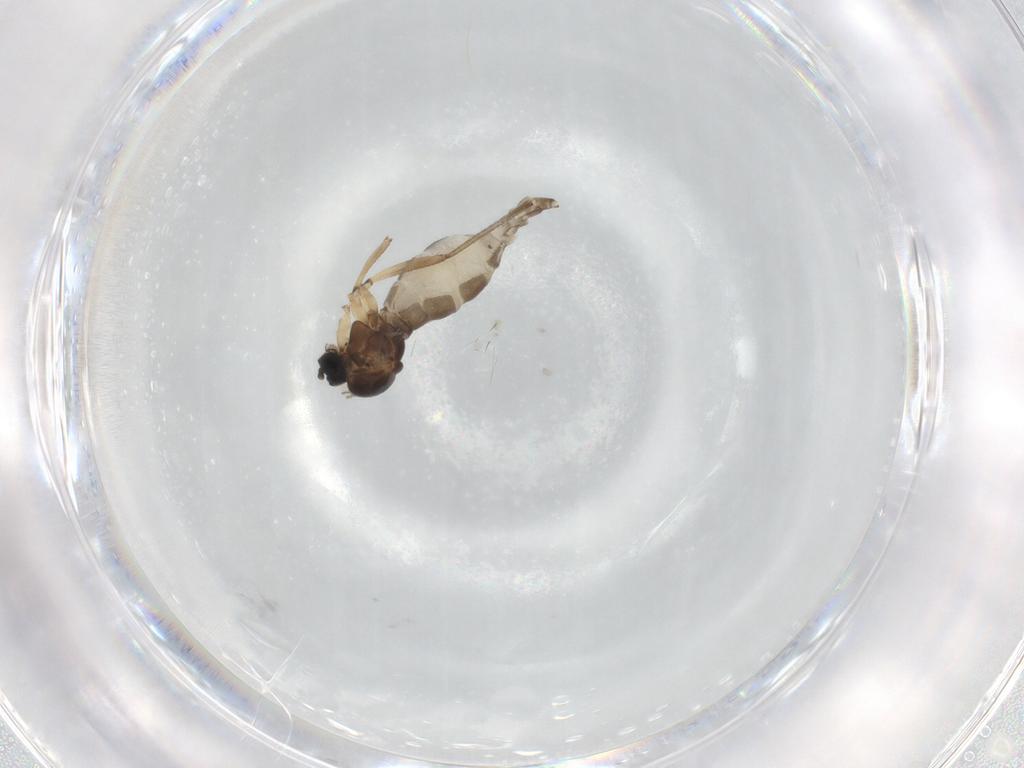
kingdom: Animalia
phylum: Arthropoda
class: Insecta
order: Diptera
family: Sciaridae
